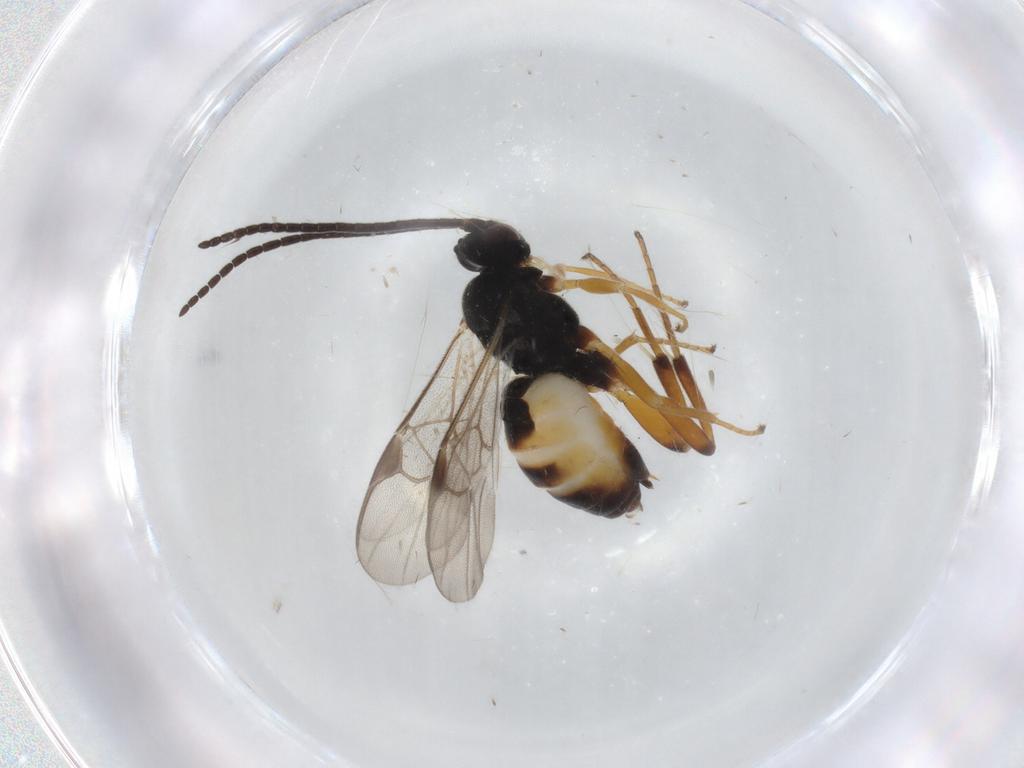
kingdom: Animalia
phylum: Arthropoda
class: Insecta
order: Hymenoptera
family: Braconidae
